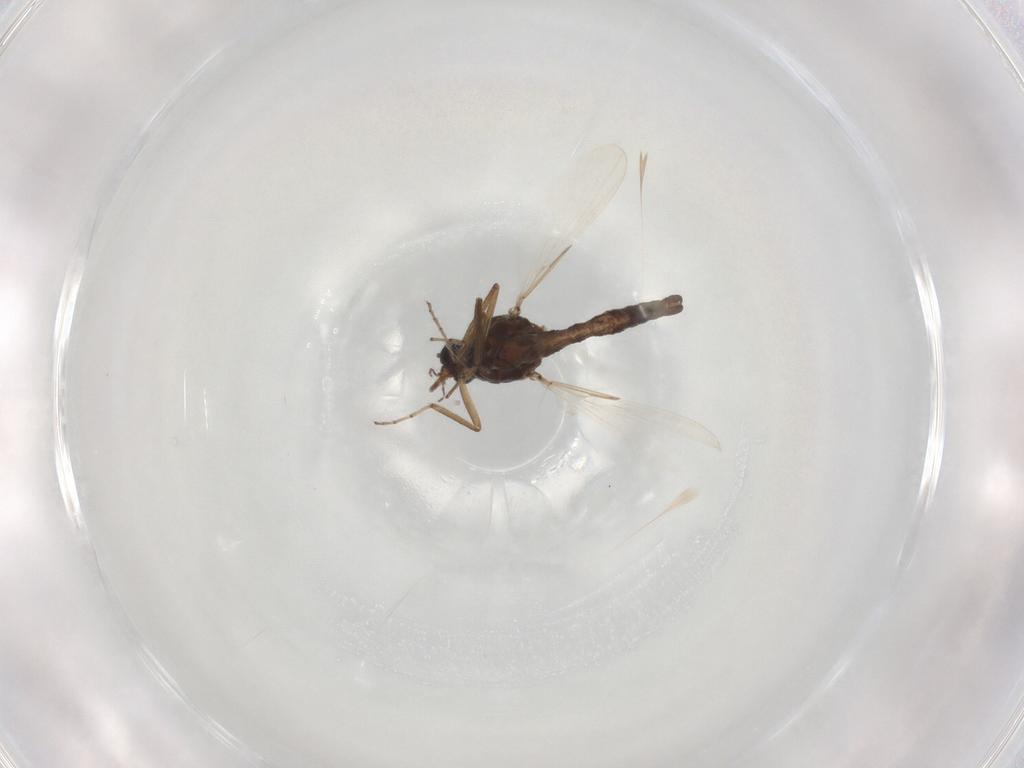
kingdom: Animalia
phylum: Arthropoda
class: Insecta
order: Diptera
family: Ceratopogonidae
